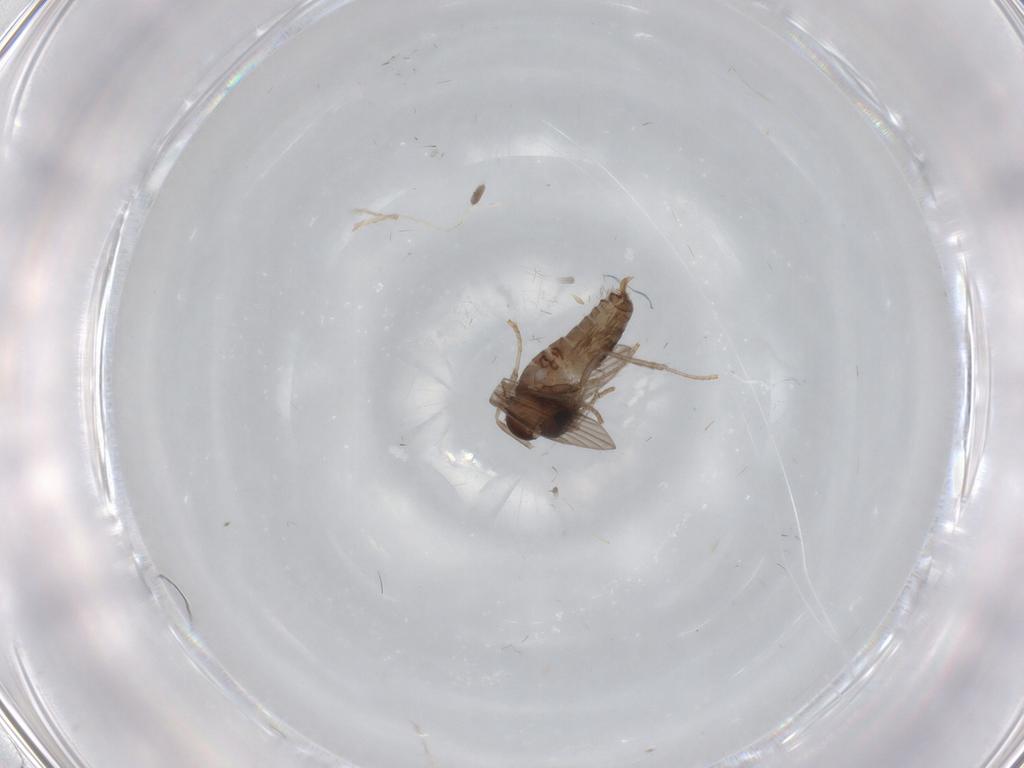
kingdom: Animalia
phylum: Arthropoda
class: Insecta
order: Diptera
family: Psychodidae
